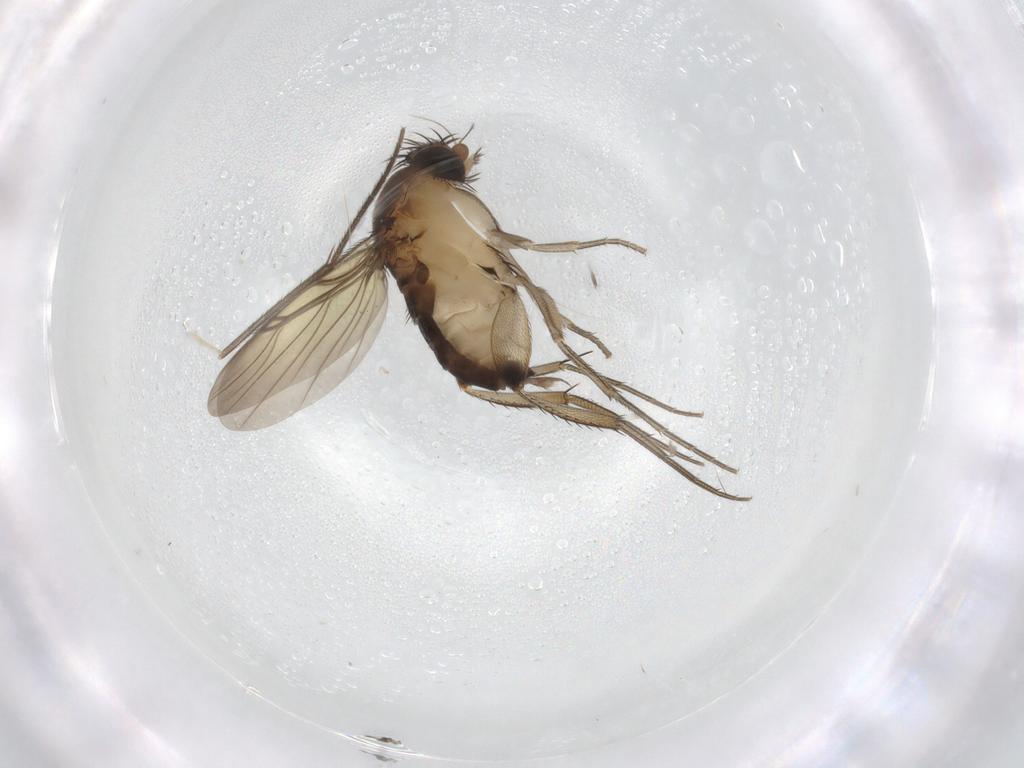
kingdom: Animalia
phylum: Arthropoda
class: Insecta
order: Diptera
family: Phoridae
